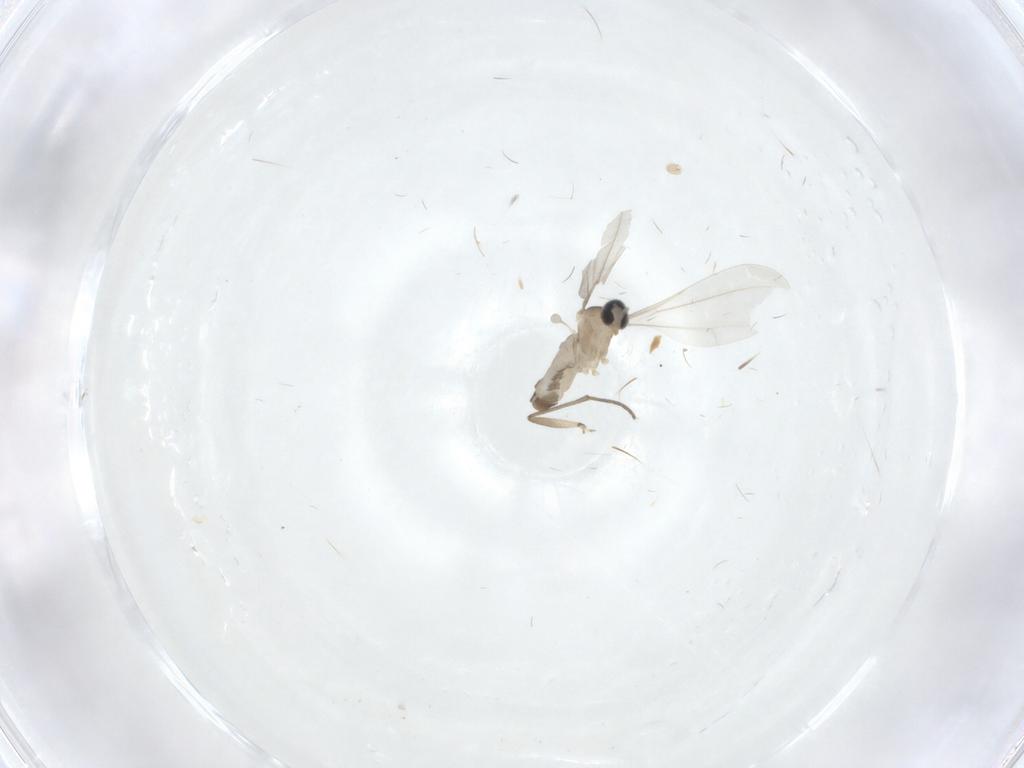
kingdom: Animalia
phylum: Arthropoda
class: Insecta
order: Diptera
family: Cecidomyiidae
